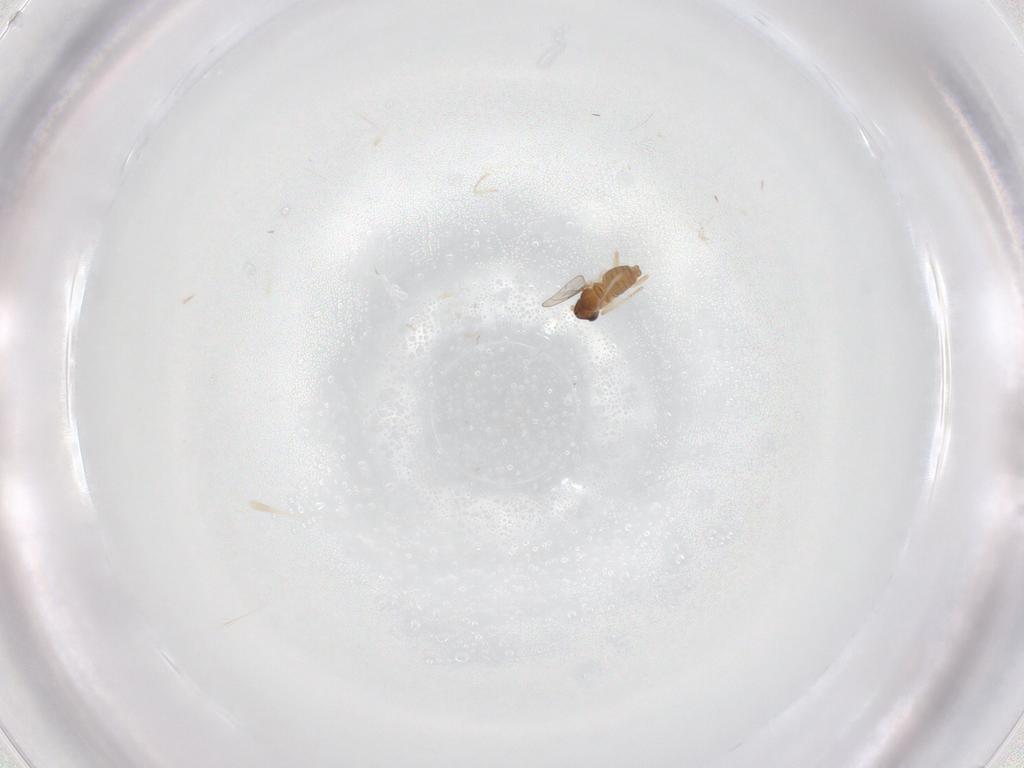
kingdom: Animalia
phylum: Arthropoda
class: Insecta
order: Diptera
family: Cecidomyiidae
